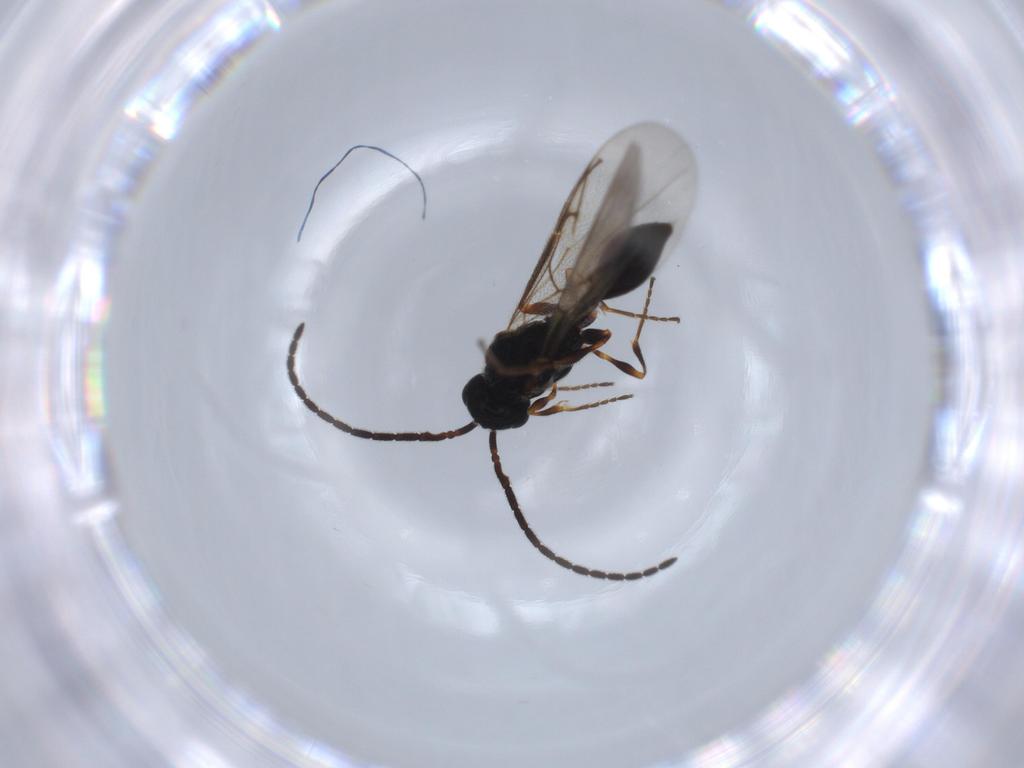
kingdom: Animalia
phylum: Arthropoda
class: Insecta
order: Hymenoptera
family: Diapriidae
